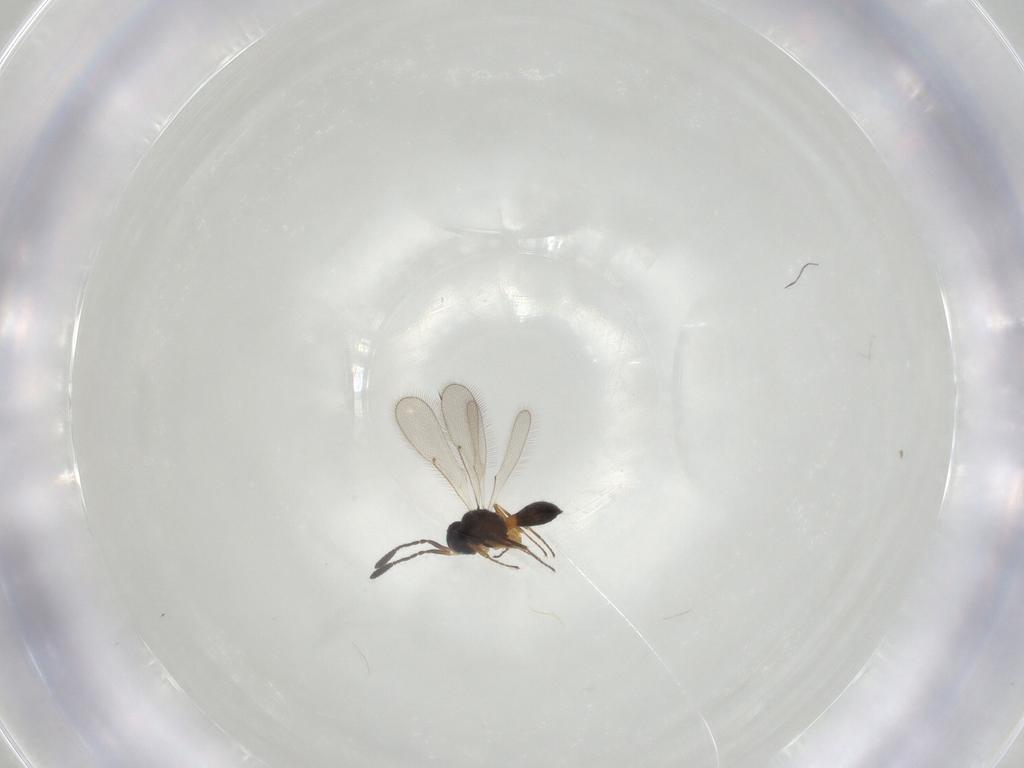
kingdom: Animalia
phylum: Arthropoda
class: Insecta
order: Hymenoptera
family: Scelionidae
